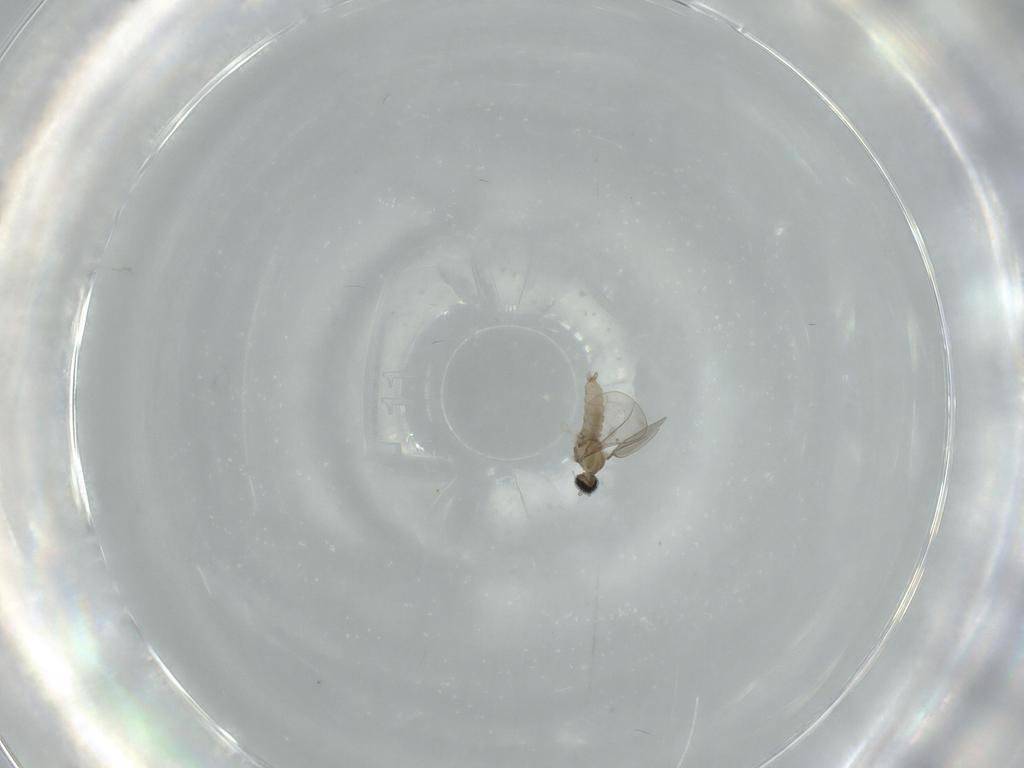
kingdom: Animalia
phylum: Arthropoda
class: Insecta
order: Diptera
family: Cecidomyiidae
